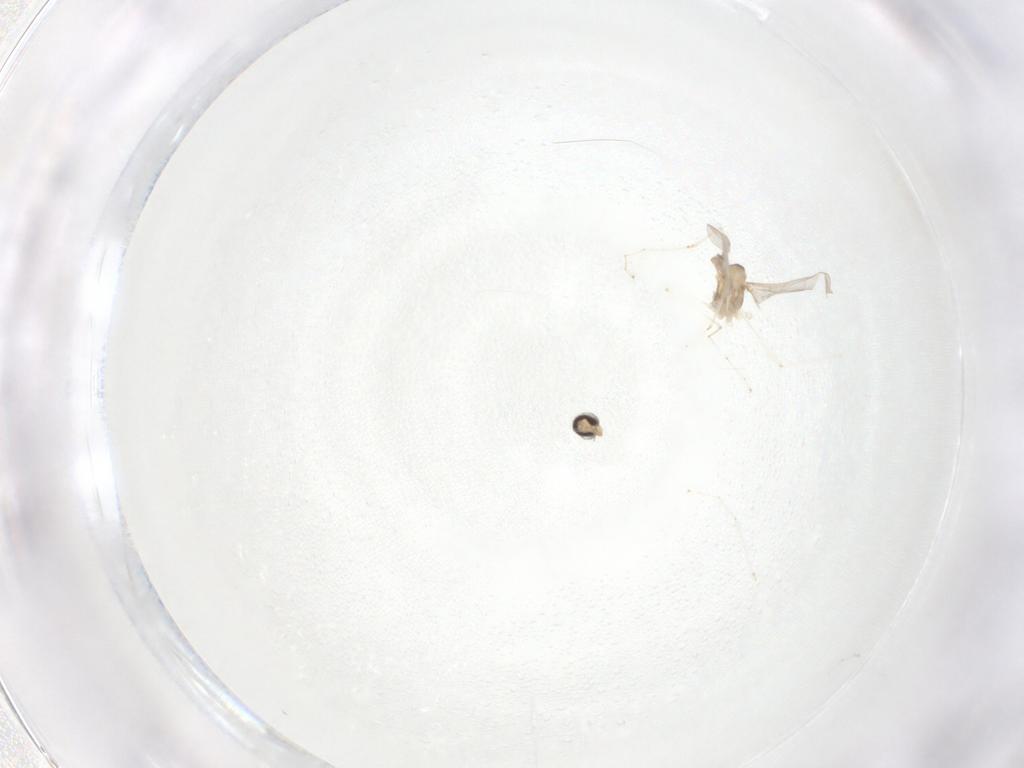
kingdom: Animalia
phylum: Arthropoda
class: Insecta
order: Diptera
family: Cecidomyiidae
